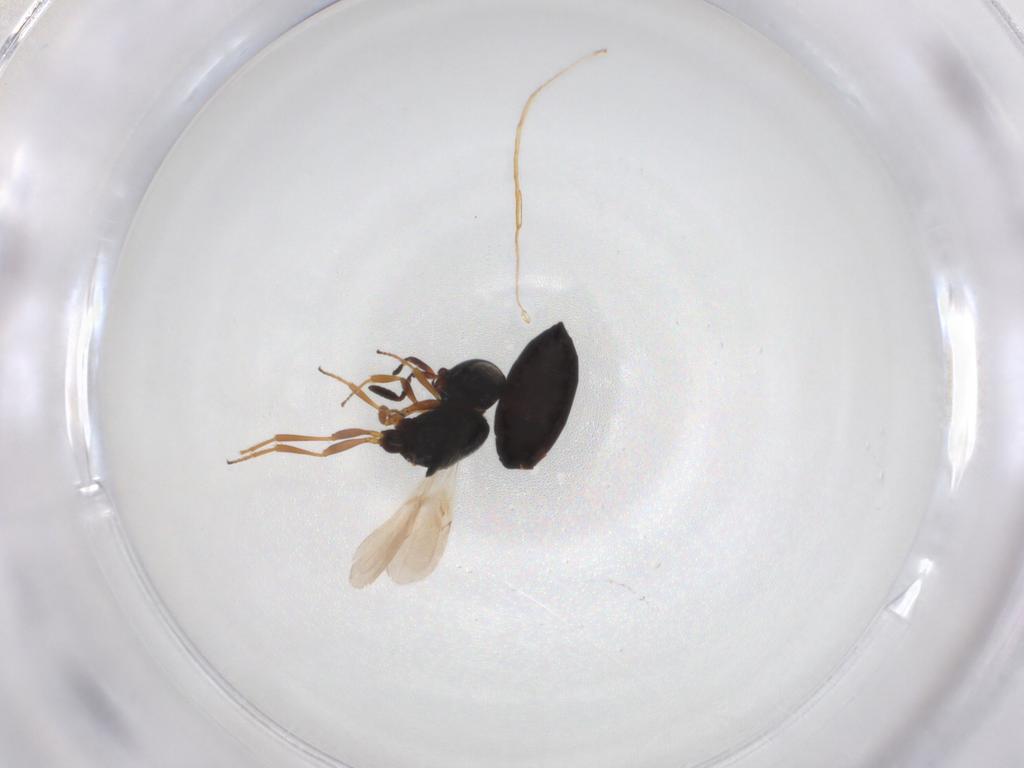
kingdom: Animalia
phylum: Arthropoda
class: Insecta
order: Hymenoptera
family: Scelionidae
